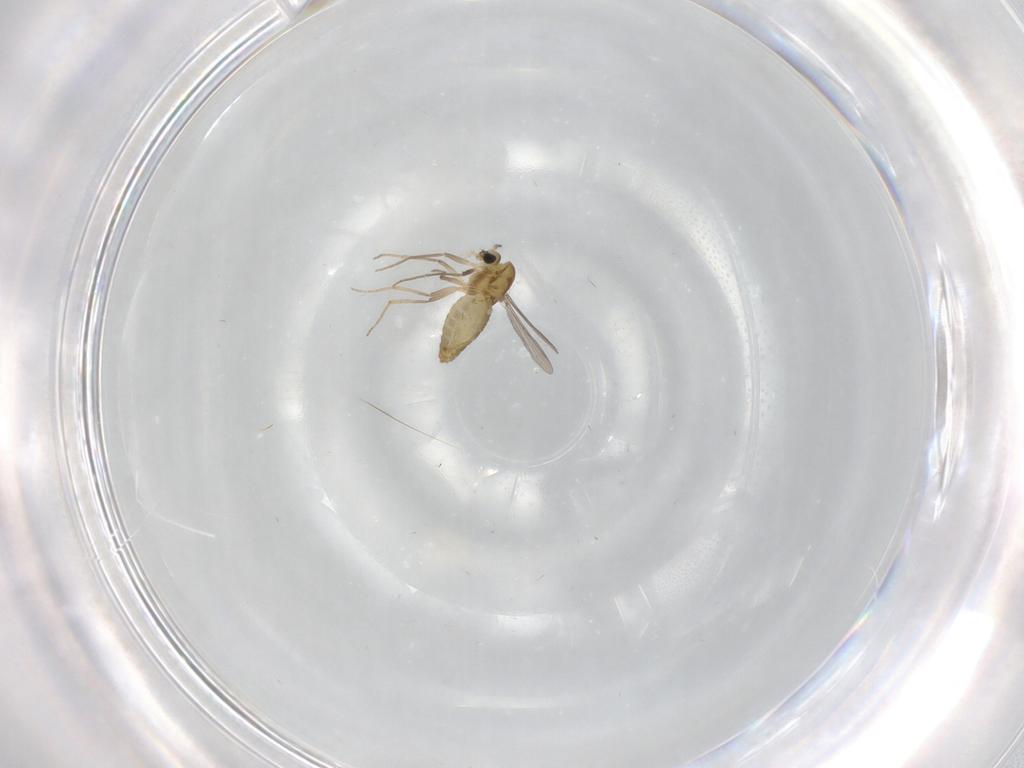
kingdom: Animalia
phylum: Arthropoda
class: Insecta
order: Diptera
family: Chironomidae
